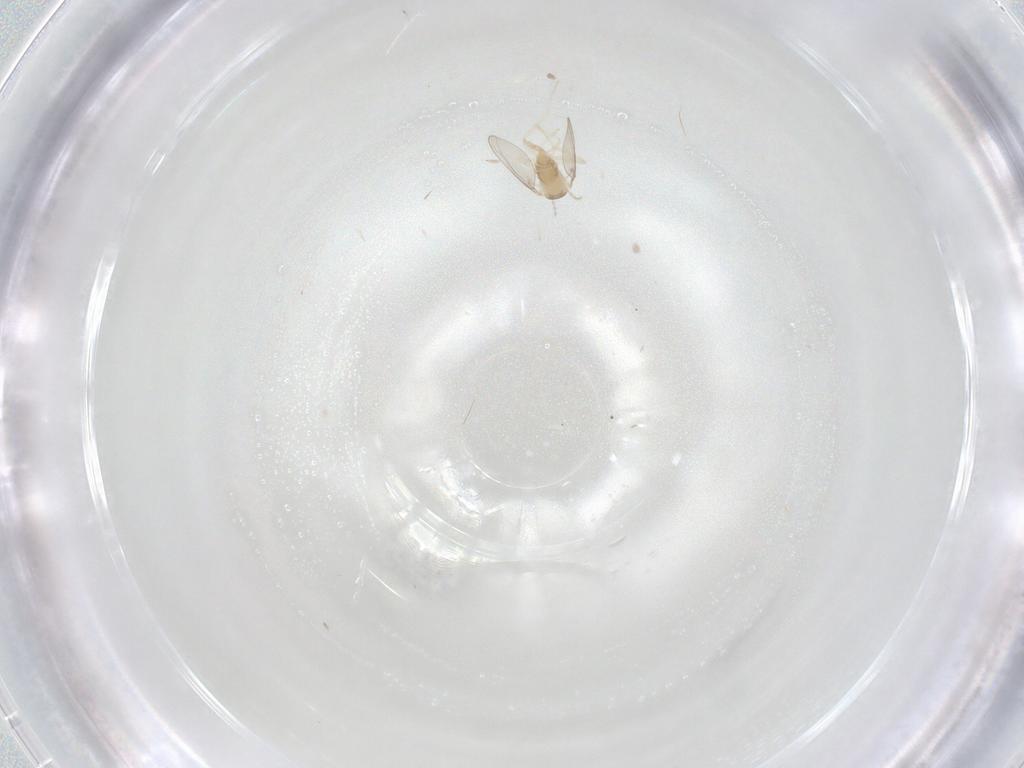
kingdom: Animalia
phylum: Arthropoda
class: Insecta
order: Diptera
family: Cecidomyiidae
